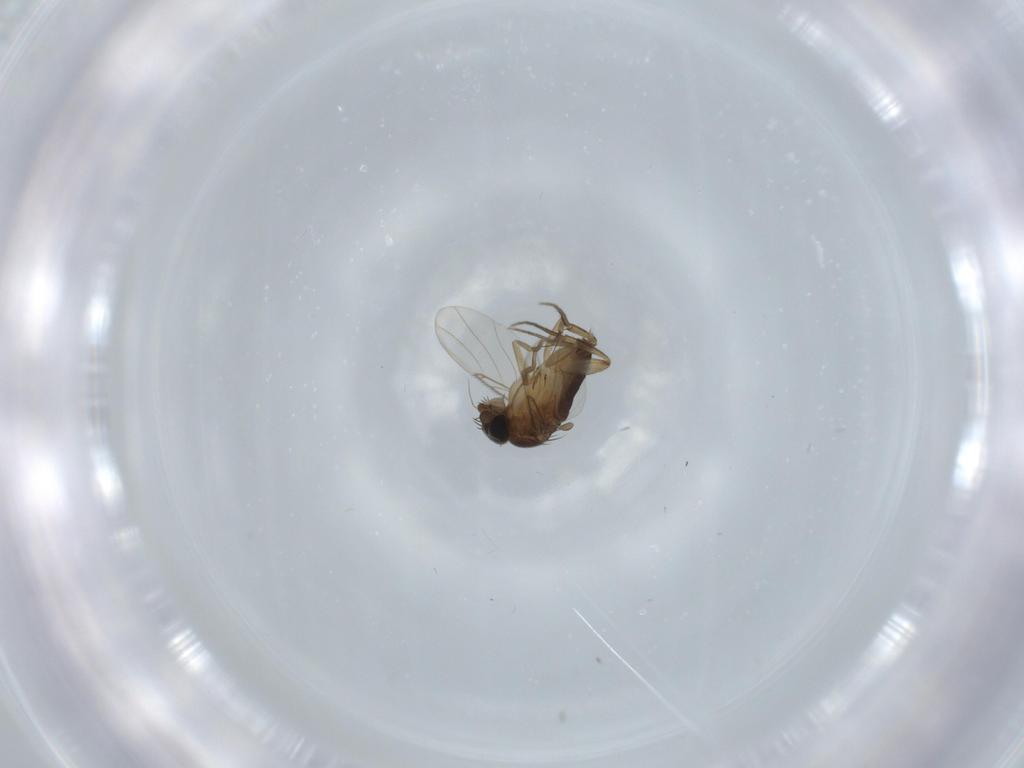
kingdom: Animalia
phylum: Arthropoda
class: Insecta
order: Diptera
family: Phoridae
